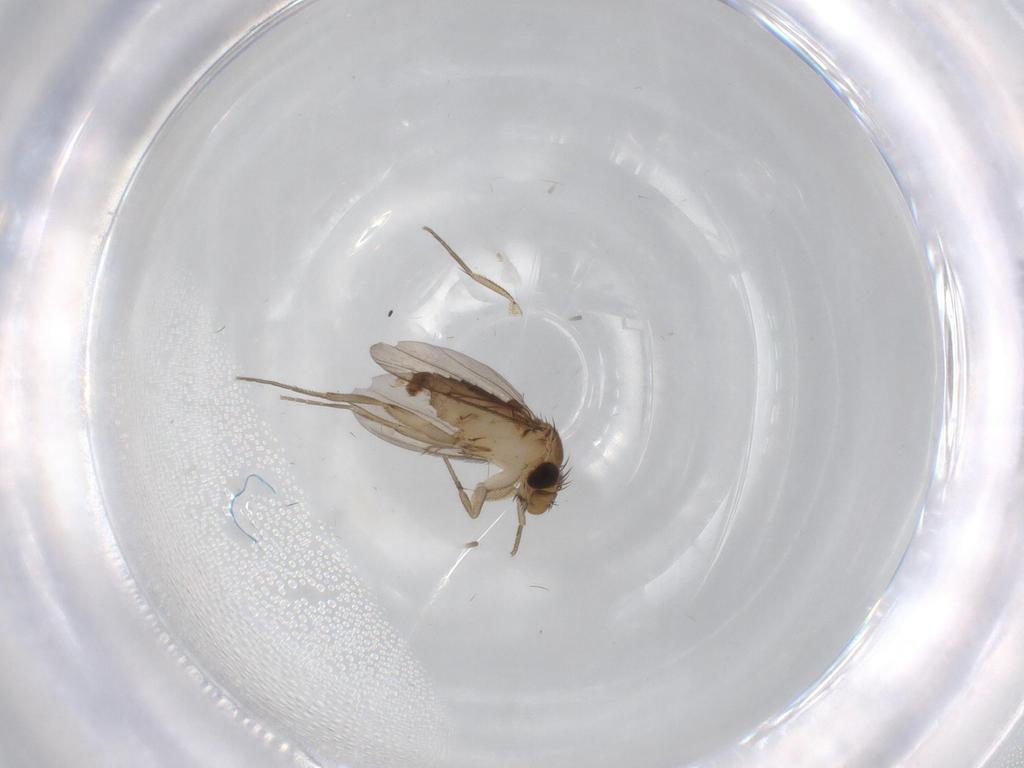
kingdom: Animalia
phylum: Arthropoda
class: Insecta
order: Diptera
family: Phoridae
